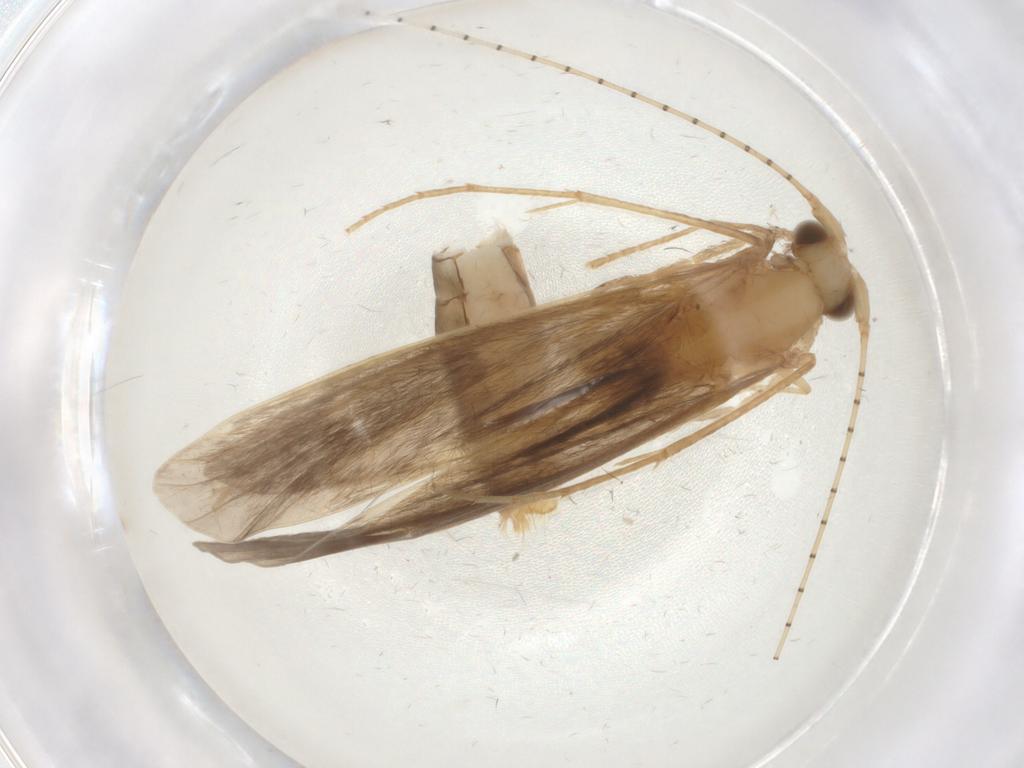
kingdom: Animalia
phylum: Arthropoda
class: Insecta
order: Trichoptera
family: Leptoceridae
